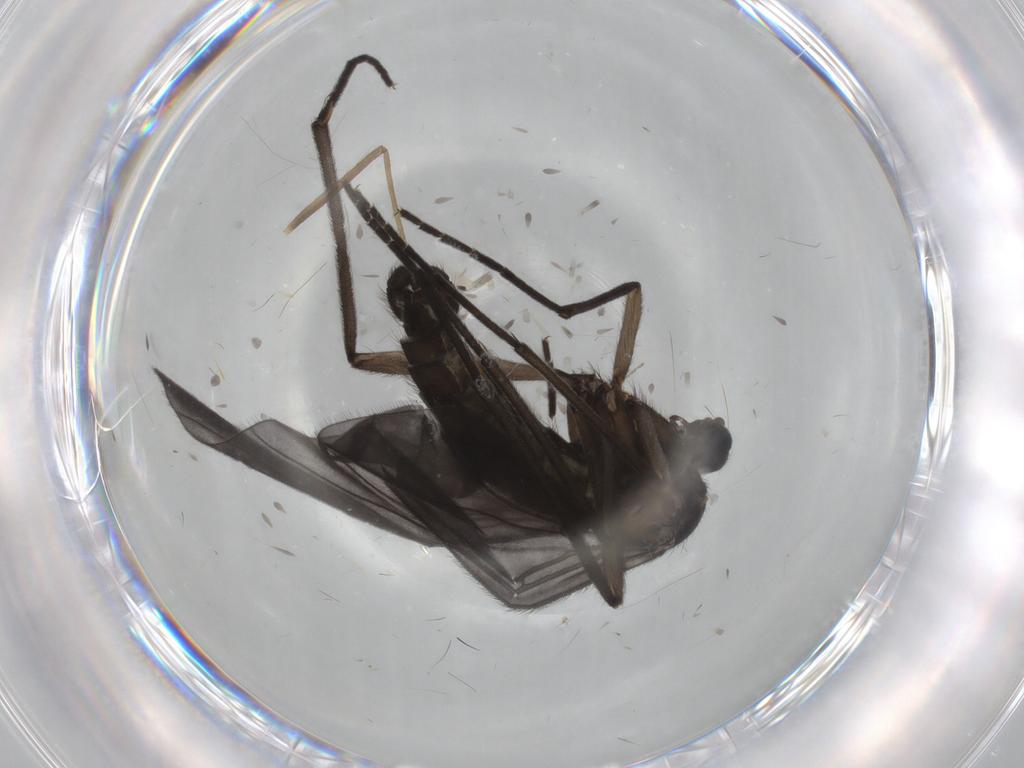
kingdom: Animalia
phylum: Arthropoda
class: Insecta
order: Diptera
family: Sciaridae
